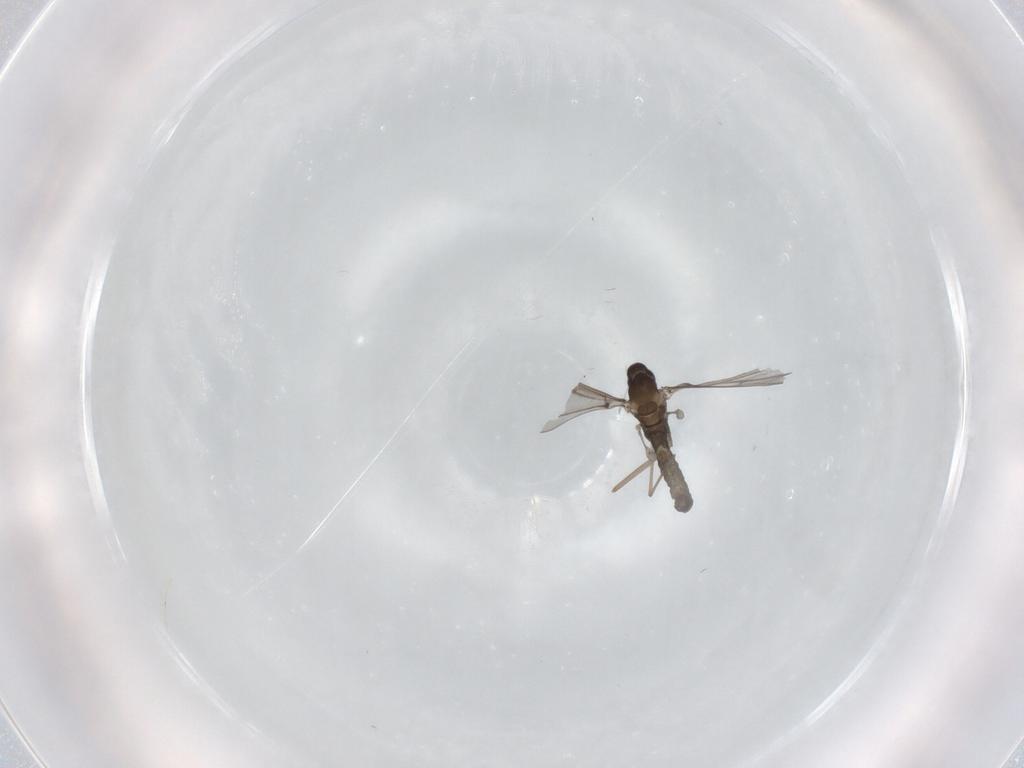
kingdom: Animalia
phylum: Arthropoda
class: Insecta
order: Diptera
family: Cecidomyiidae
